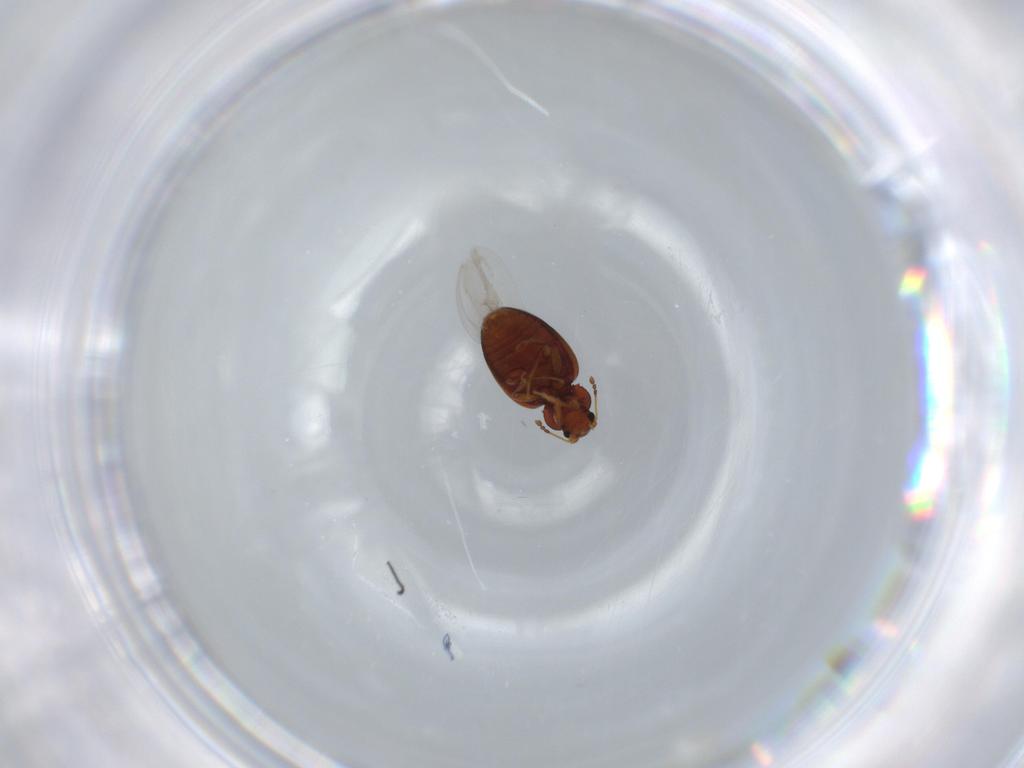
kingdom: Animalia
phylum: Arthropoda
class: Insecta
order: Coleoptera
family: Latridiidae
